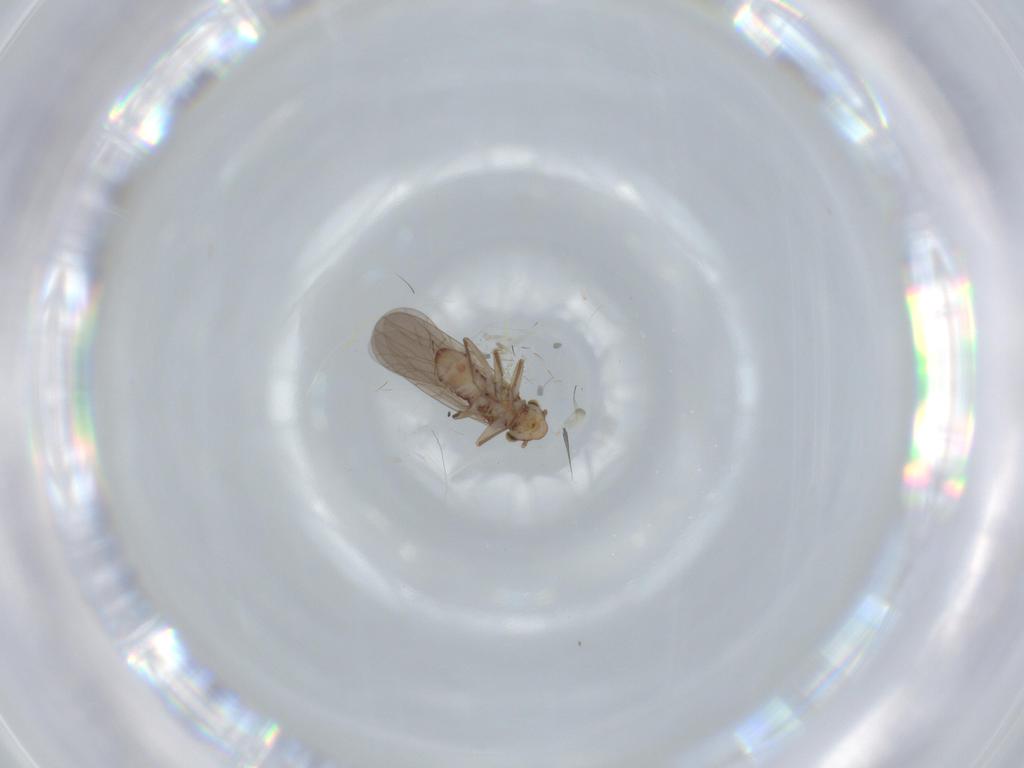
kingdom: Animalia
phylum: Arthropoda
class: Insecta
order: Psocodea
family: Lepidopsocidae
